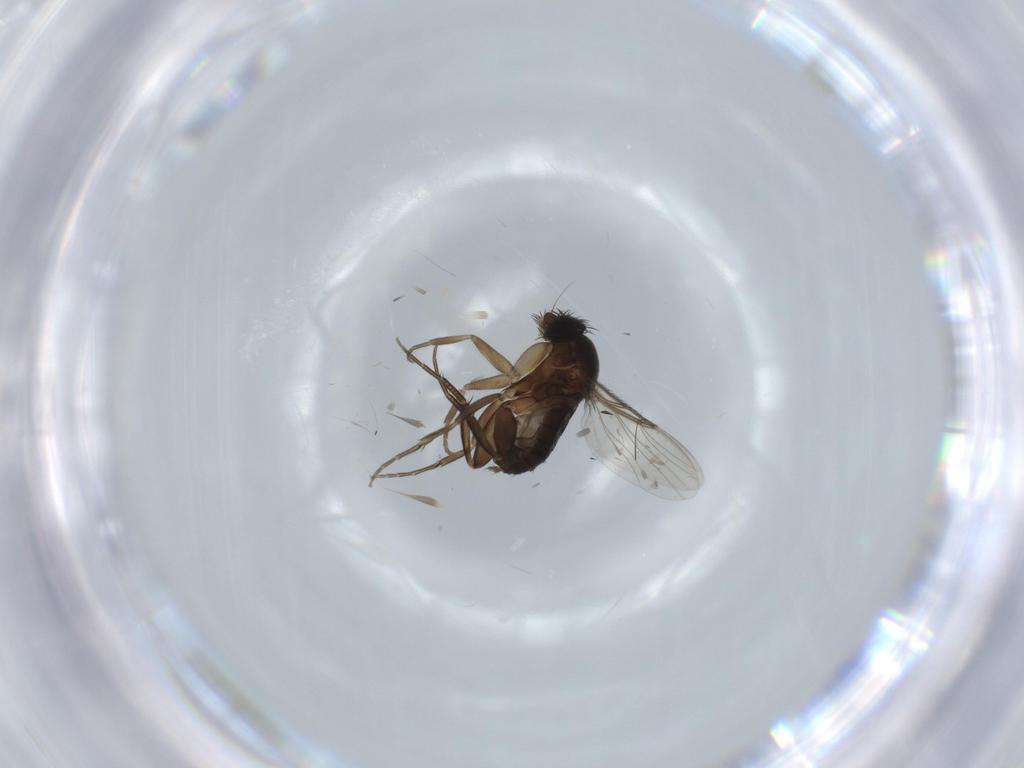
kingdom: Animalia
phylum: Arthropoda
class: Insecta
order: Diptera
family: Phoridae
